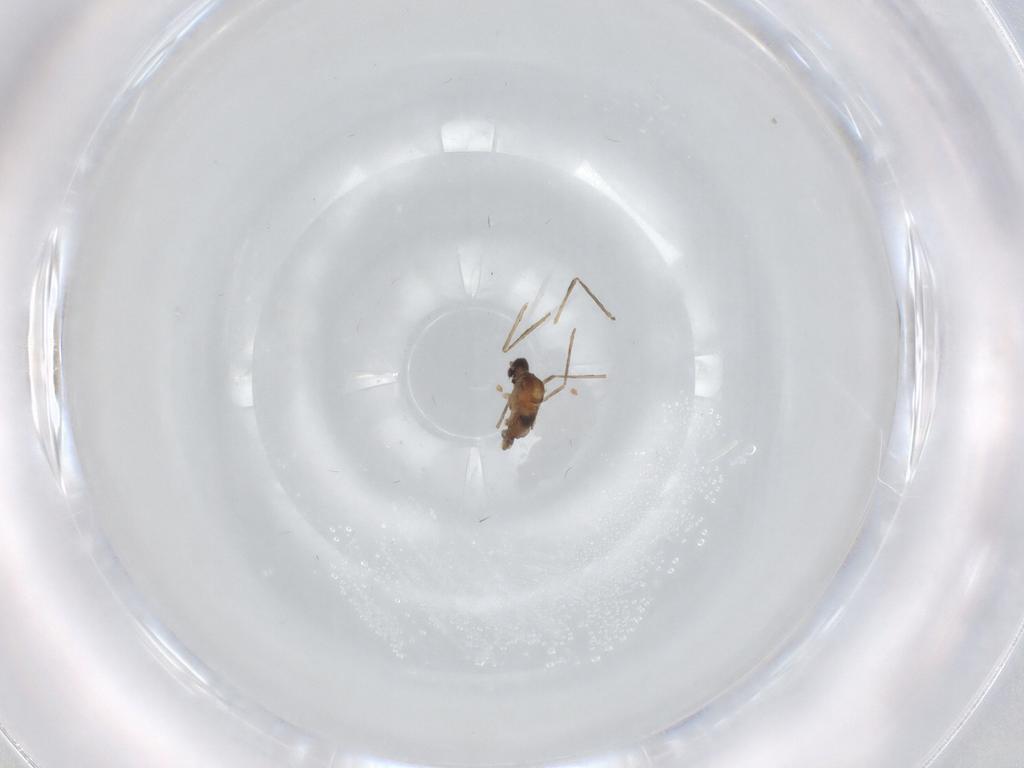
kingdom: Animalia
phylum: Arthropoda
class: Insecta
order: Diptera
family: Cecidomyiidae
